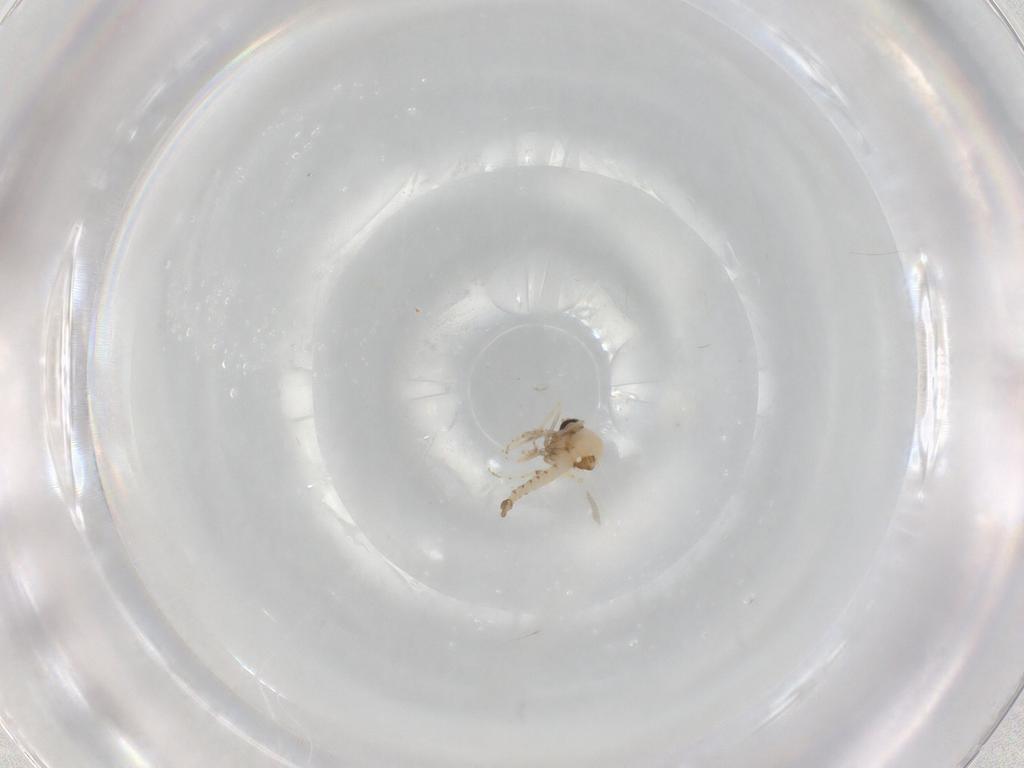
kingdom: Animalia
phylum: Arthropoda
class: Insecta
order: Diptera
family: Ceratopogonidae
